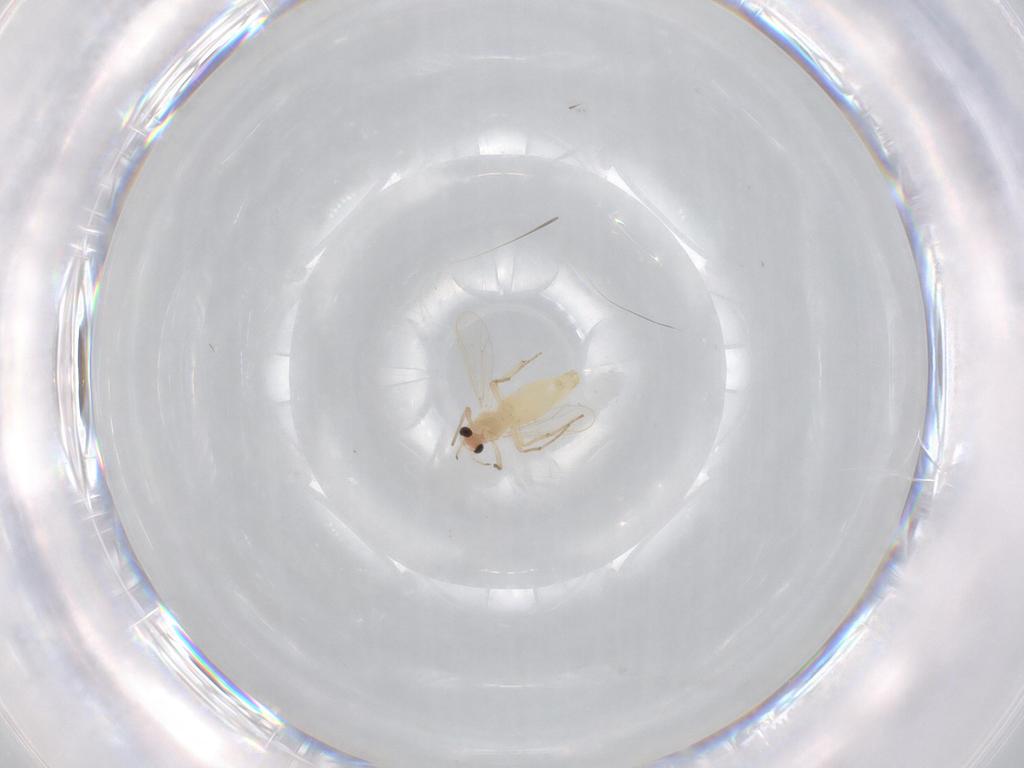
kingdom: Animalia
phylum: Arthropoda
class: Insecta
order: Diptera
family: Chironomidae
